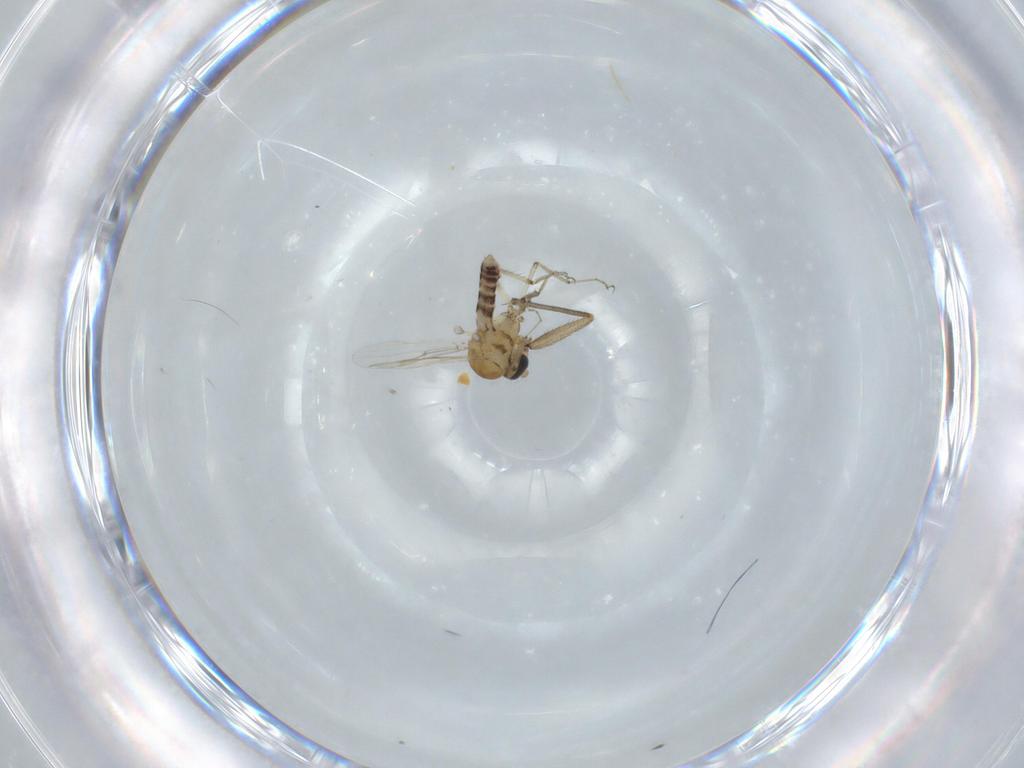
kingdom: Animalia
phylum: Arthropoda
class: Insecta
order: Diptera
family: Ceratopogonidae
